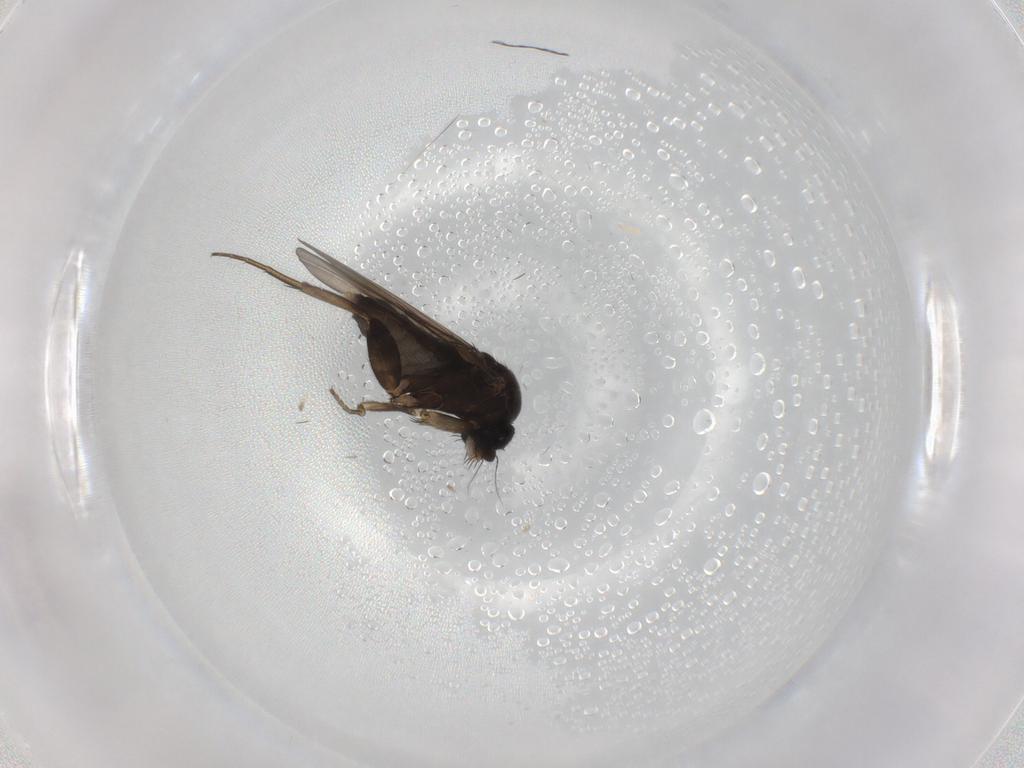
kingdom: Animalia
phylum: Arthropoda
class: Insecta
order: Diptera
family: Phoridae
